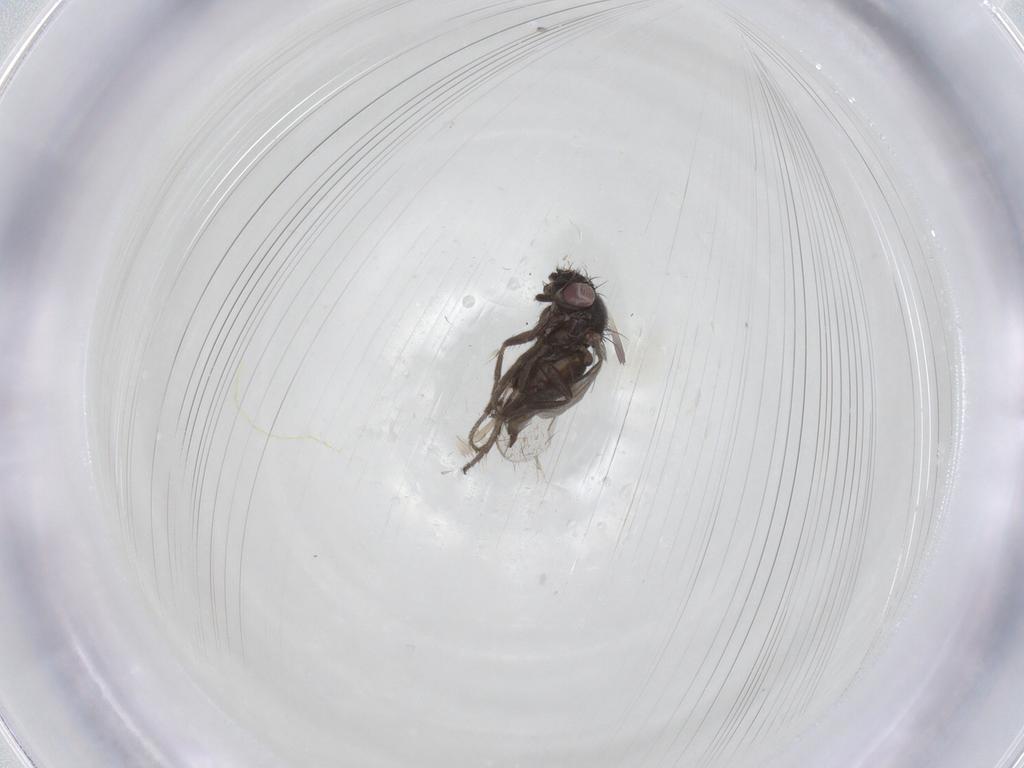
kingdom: Animalia
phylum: Arthropoda
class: Insecta
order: Diptera
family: Milichiidae
